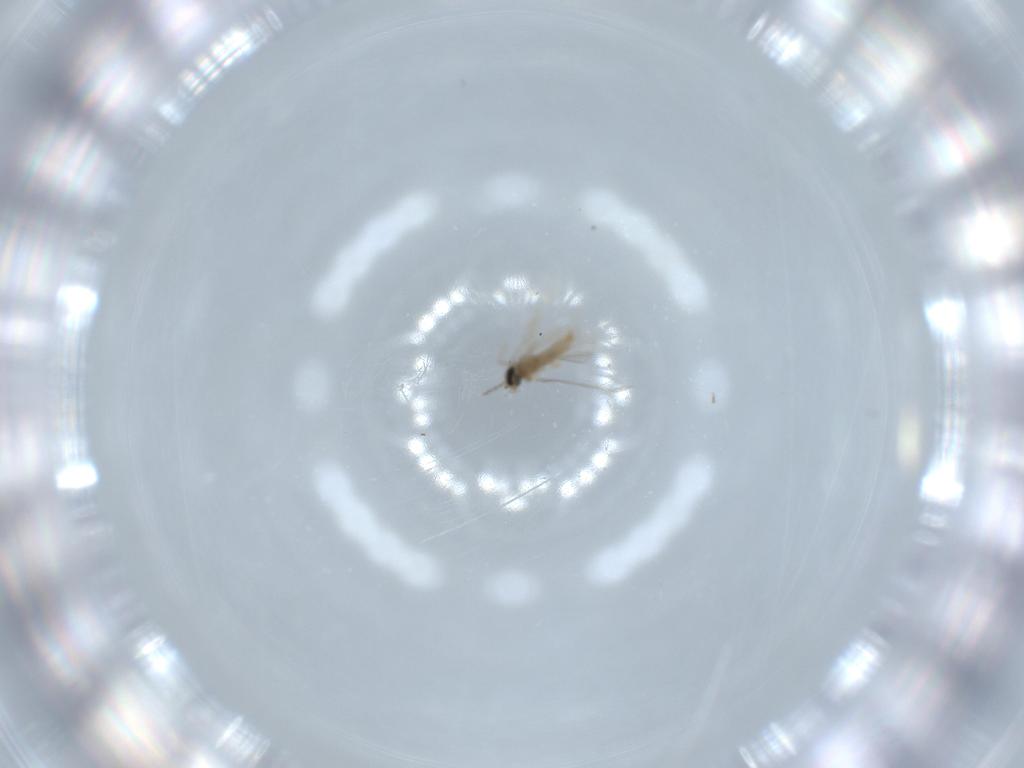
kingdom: Animalia
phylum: Arthropoda
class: Insecta
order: Diptera
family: Cecidomyiidae
